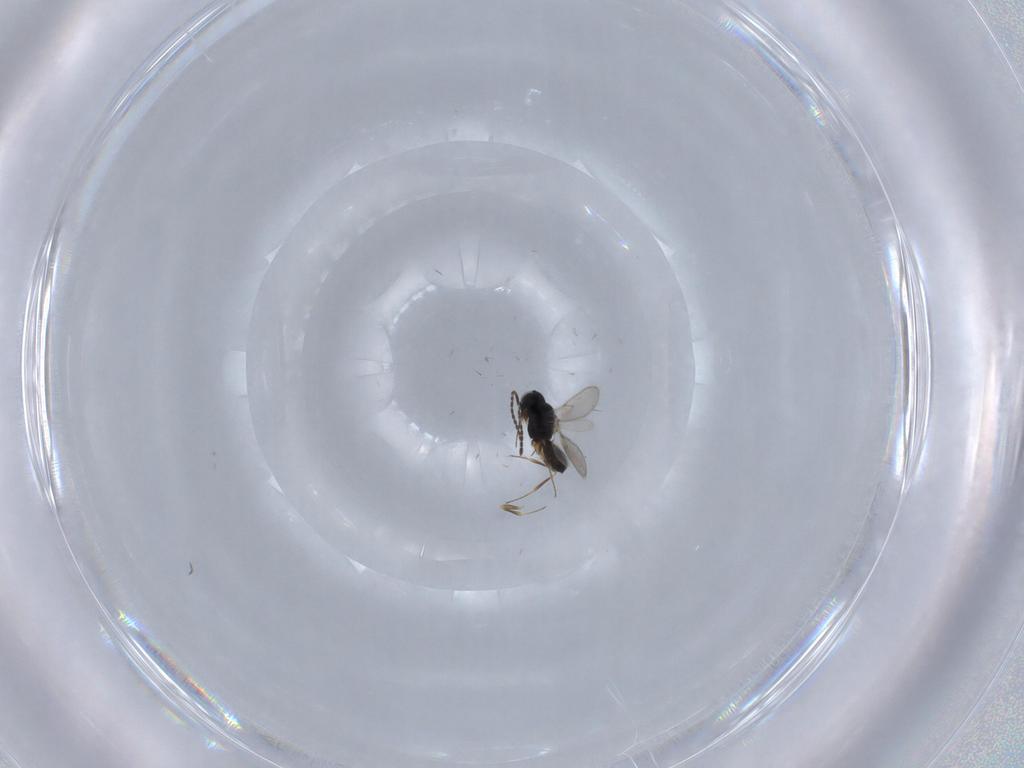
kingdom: Animalia
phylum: Arthropoda
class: Insecta
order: Hymenoptera
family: Scelionidae
